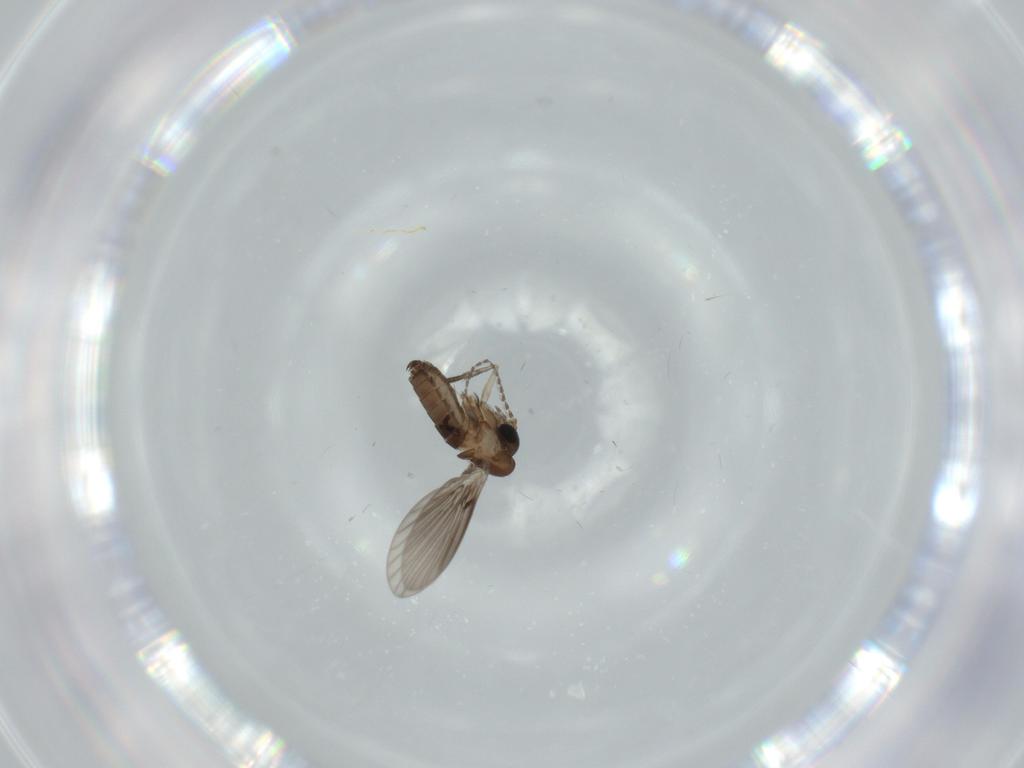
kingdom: Animalia
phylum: Arthropoda
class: Insecta
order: Diptera
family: Psychodidae
